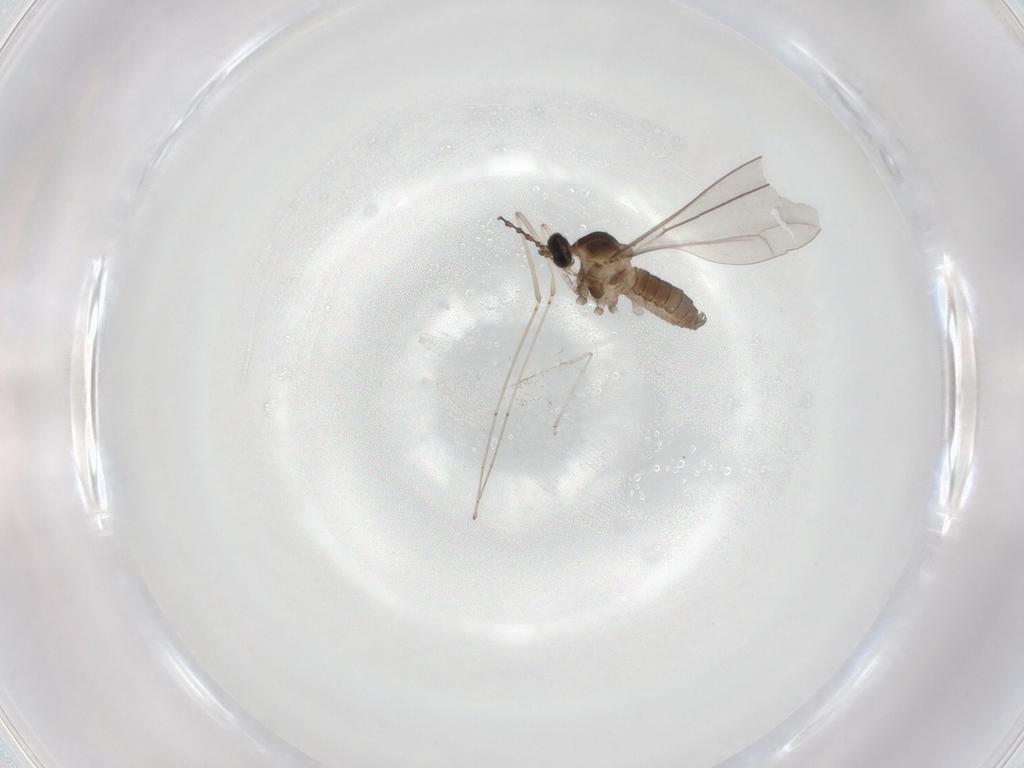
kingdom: Animalia
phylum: Arthropoda
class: Insecta
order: Diptera
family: Cecidomyiidae
